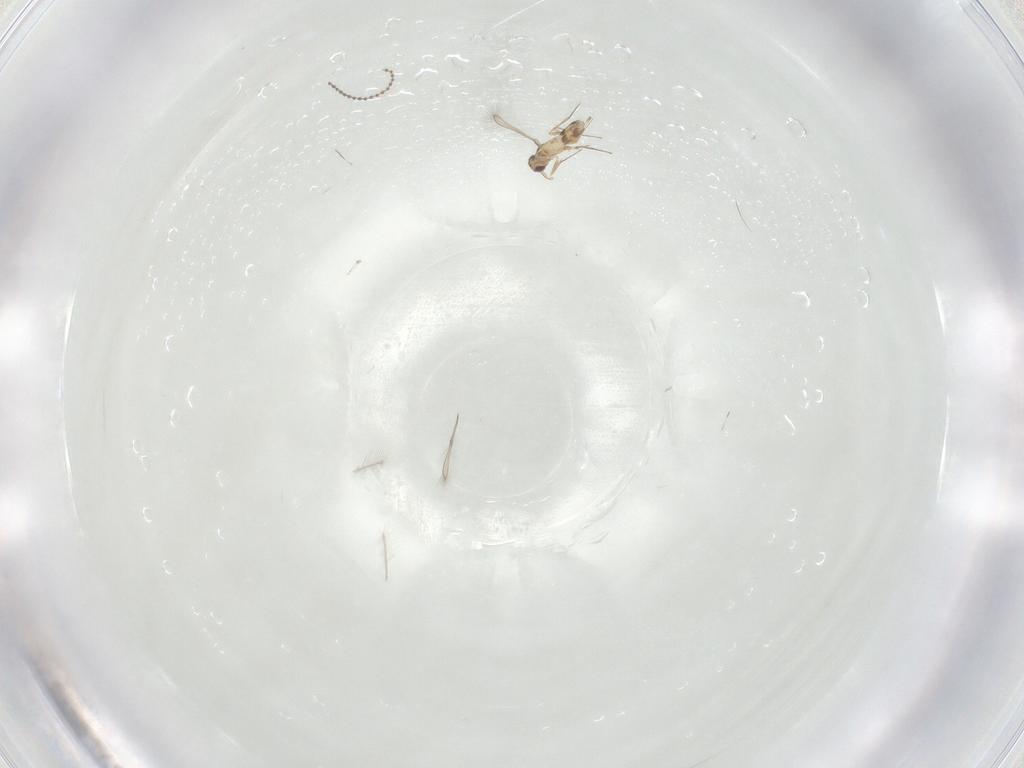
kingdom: Animalia
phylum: Arthropoda
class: Insecta
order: Hemiptera
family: Aleyrodidae
